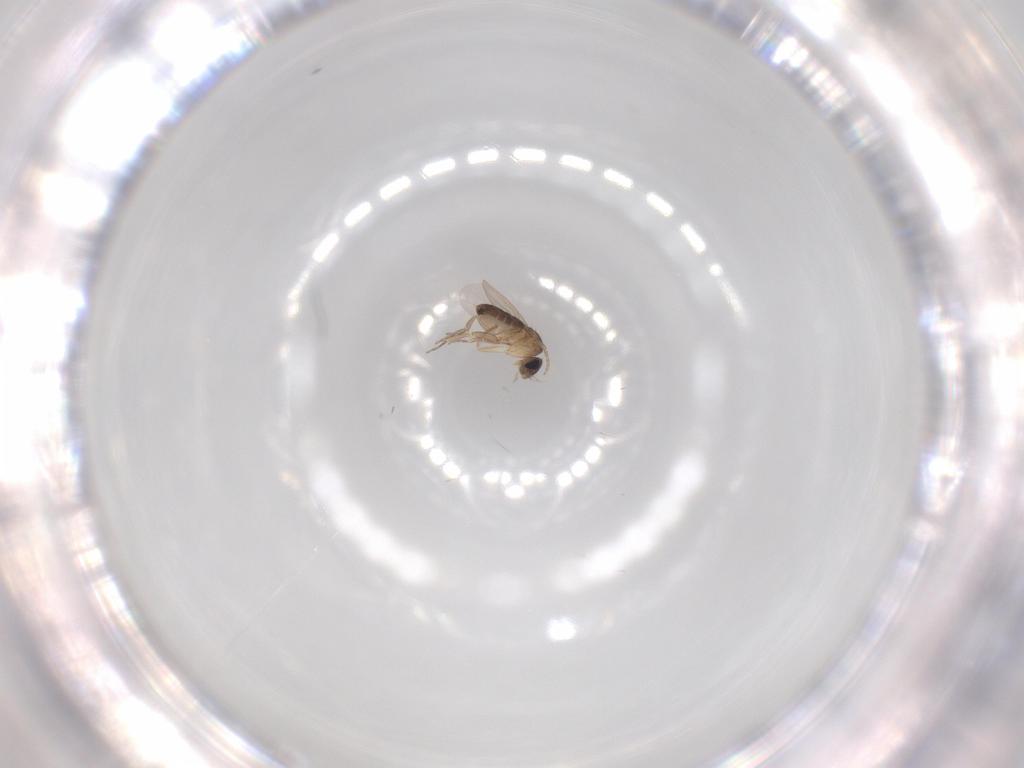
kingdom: Animalia
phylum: Arthropoda
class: Insecta
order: Diptera
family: Phoridae
